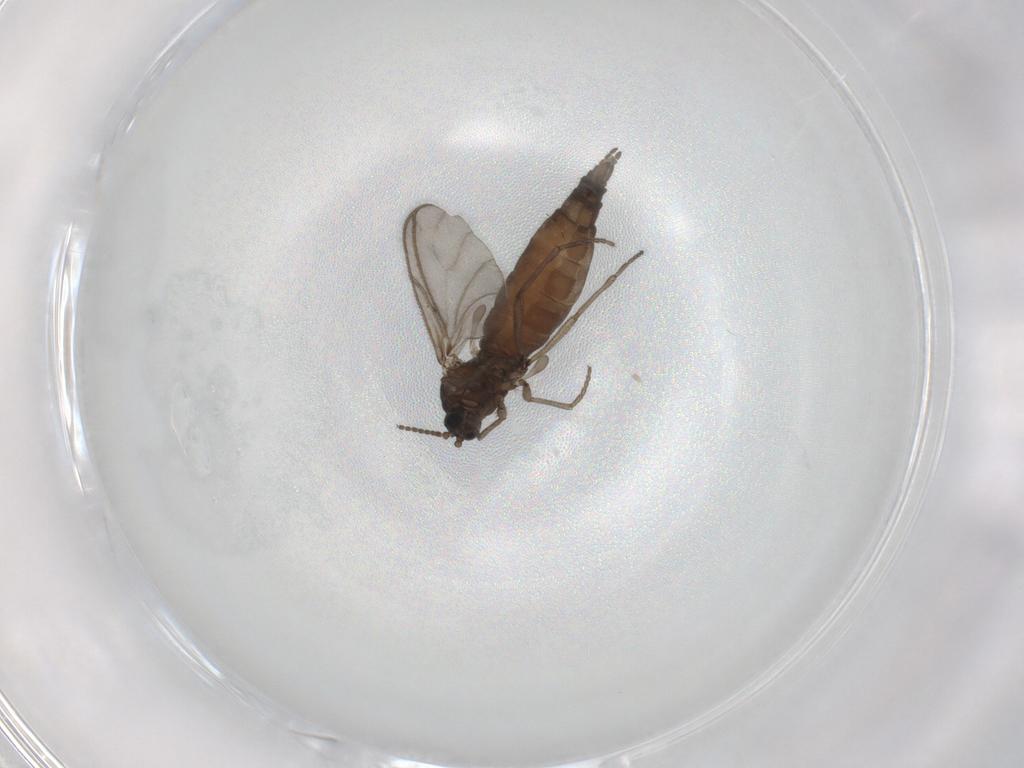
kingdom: Animalia
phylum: Arthropoda
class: Insecta
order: Diptera
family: Sciaridae
